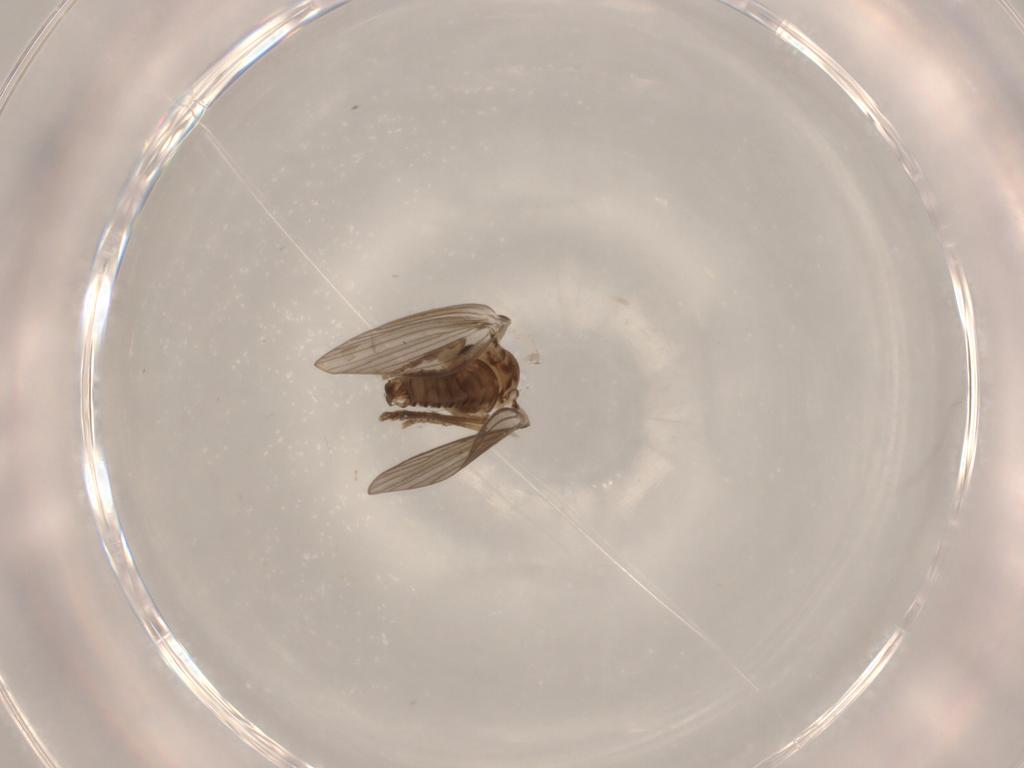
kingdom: Animalia
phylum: Arthropoda
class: Insecta
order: Diptera
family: Psychodidae
